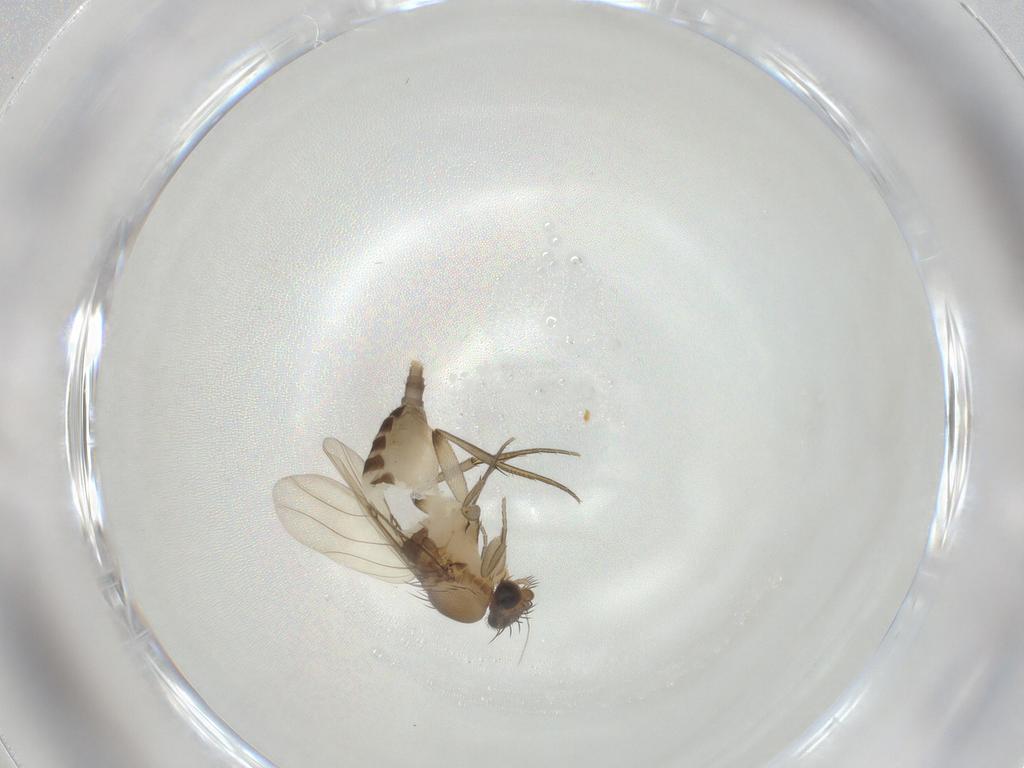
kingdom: Animalia
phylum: Arthropoda
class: Insecta
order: Diptera
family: Phoridae
